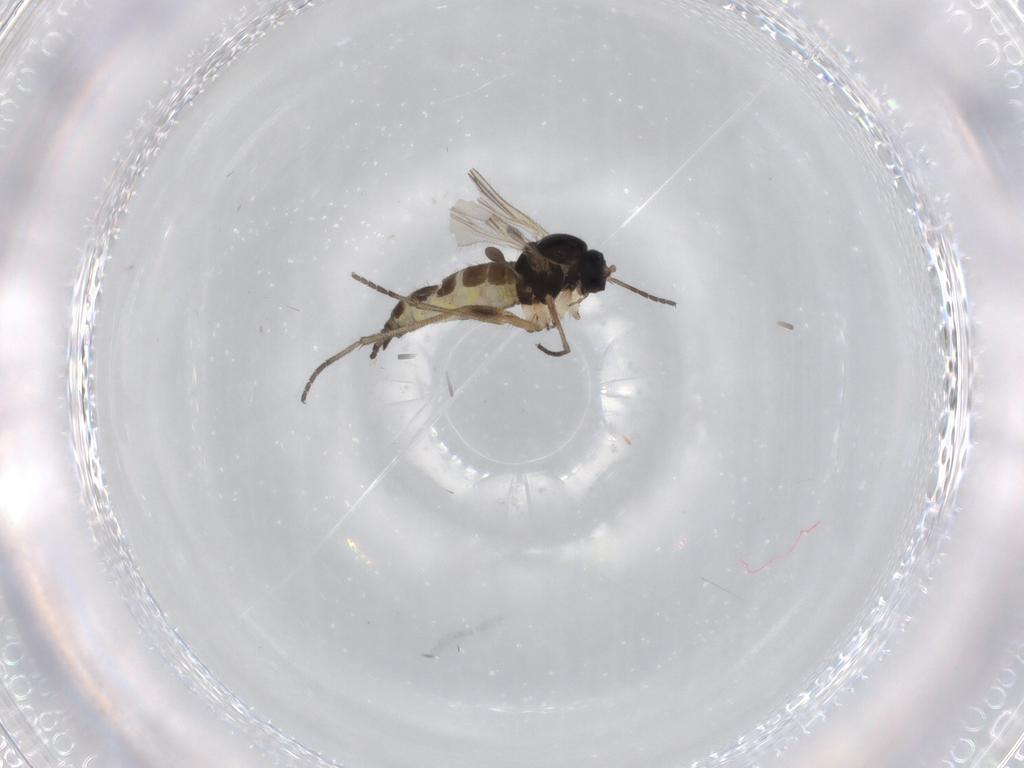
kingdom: Animalia
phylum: Arthropoda
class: Insecta
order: Diptera
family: Sciaridae
